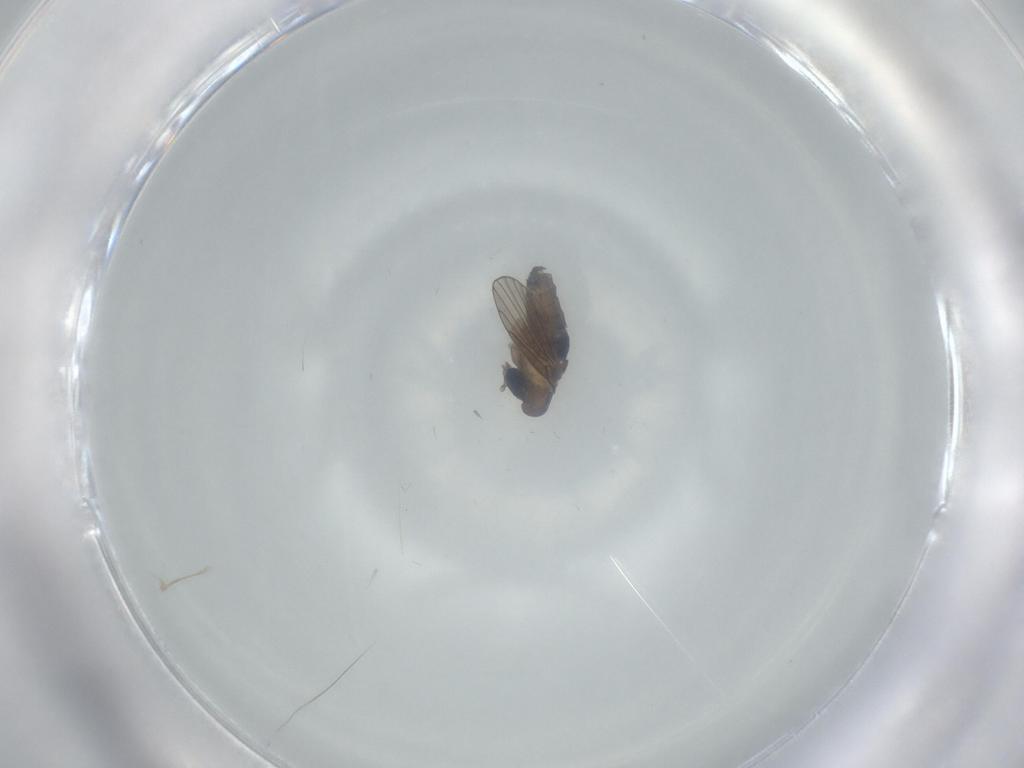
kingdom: Animalia
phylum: Arthropoda
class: Insecta
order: Diptera
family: Psychodidae
